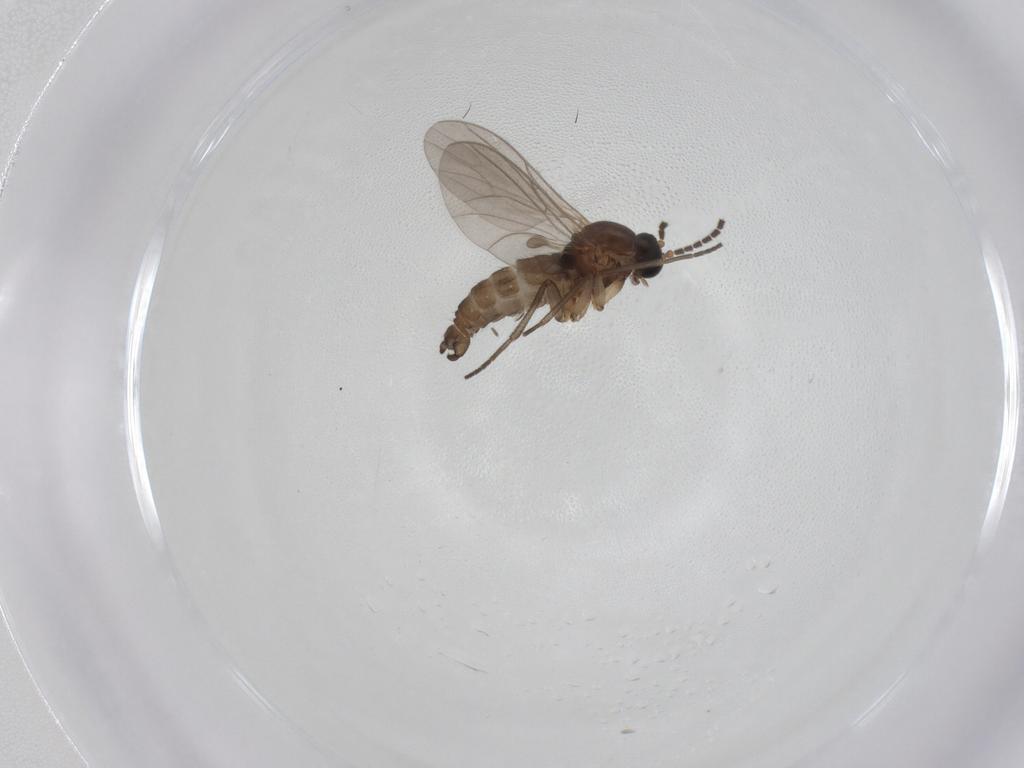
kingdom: Animalia
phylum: Arthropoda
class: Insecta
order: Diptera
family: Sciaridae
